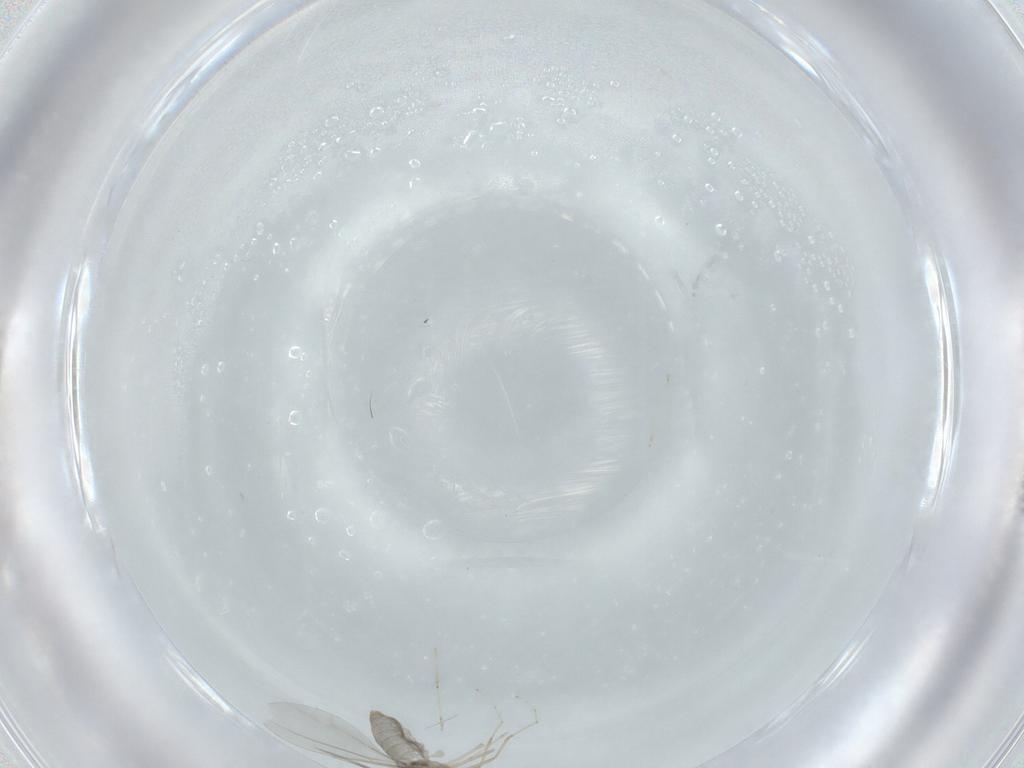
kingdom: Animalia
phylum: Arthropoda
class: Insecta
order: Diptera
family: Cecidomyiidae
